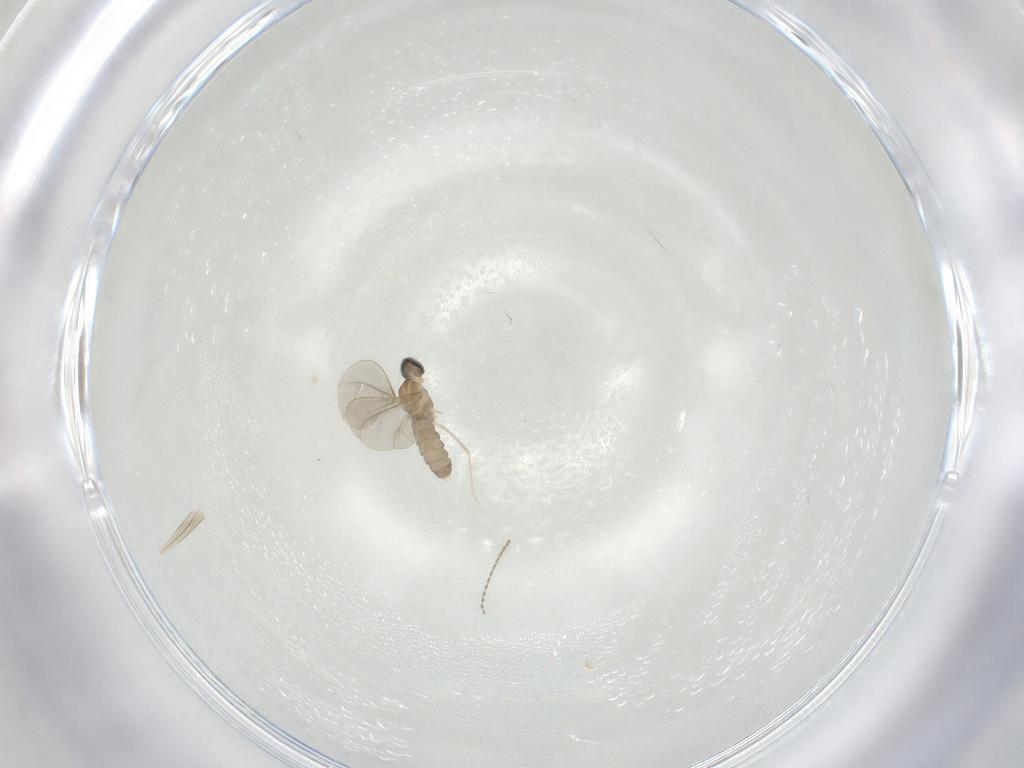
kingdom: Animalia
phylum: Arthropoda
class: Insecta
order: Diptera
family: Cecidomyiidae
